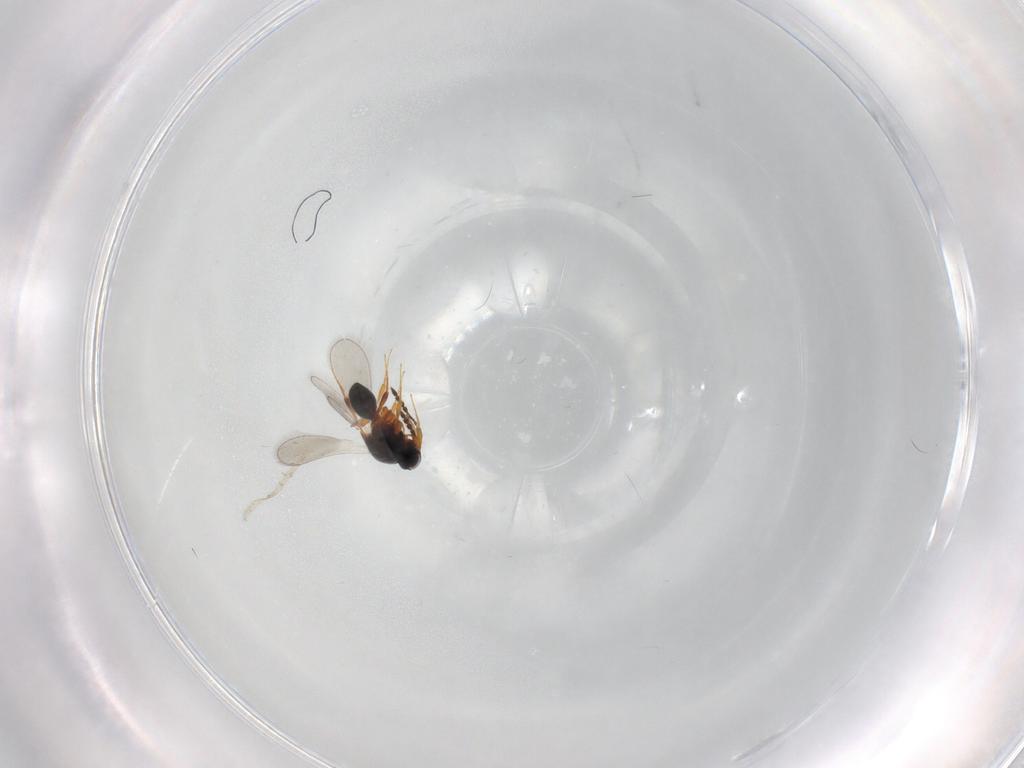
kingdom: Animalia
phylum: Arthropoda
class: Insecta
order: Hymenoptera
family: Platygastridae
